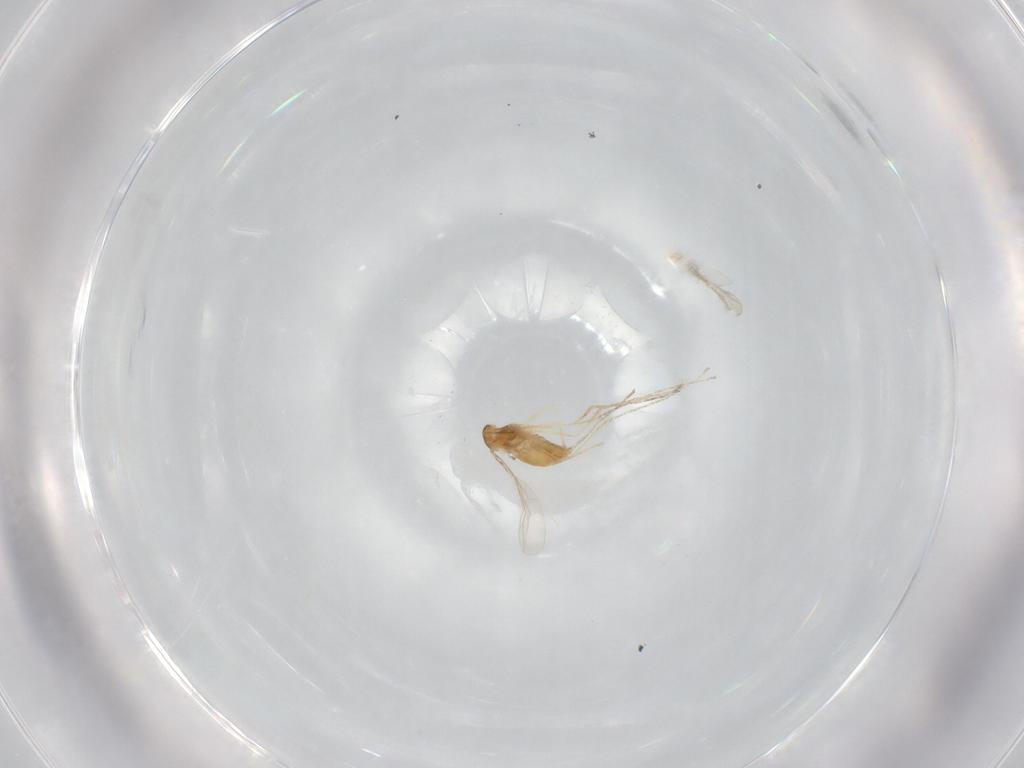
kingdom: Animalia
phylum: Arthropoda
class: Insecta
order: Diptera
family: Cecidomyiidae
